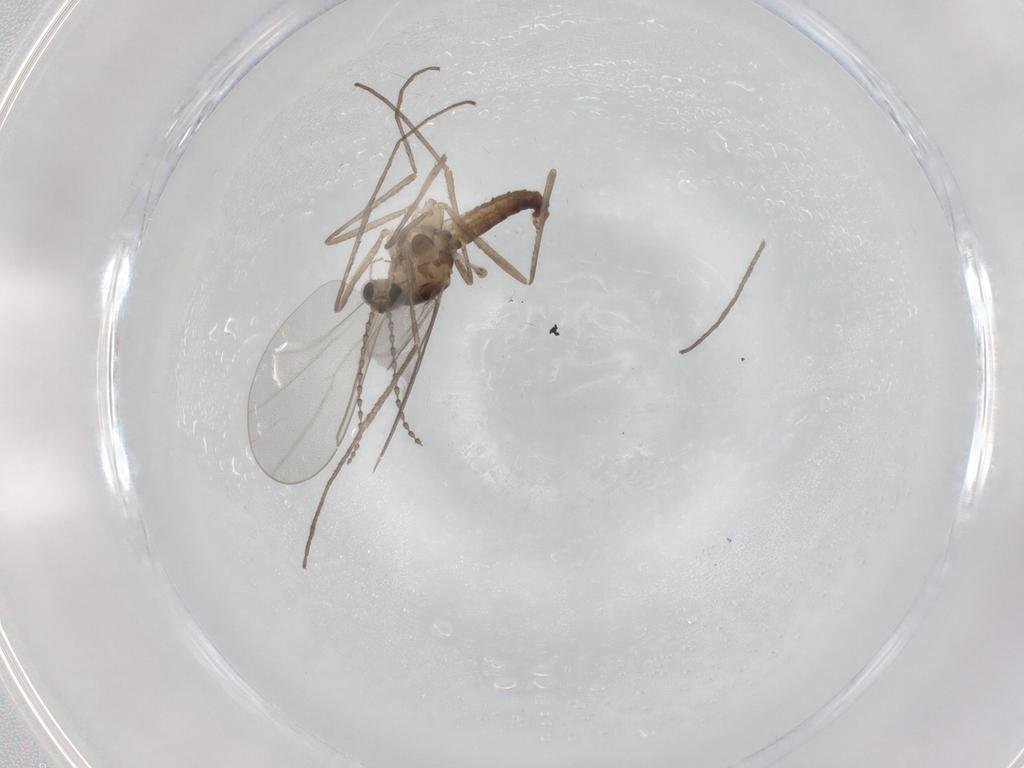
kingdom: Animalia
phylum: Arthropoda
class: Insecta
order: Diptera
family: Cecidomyiidae
